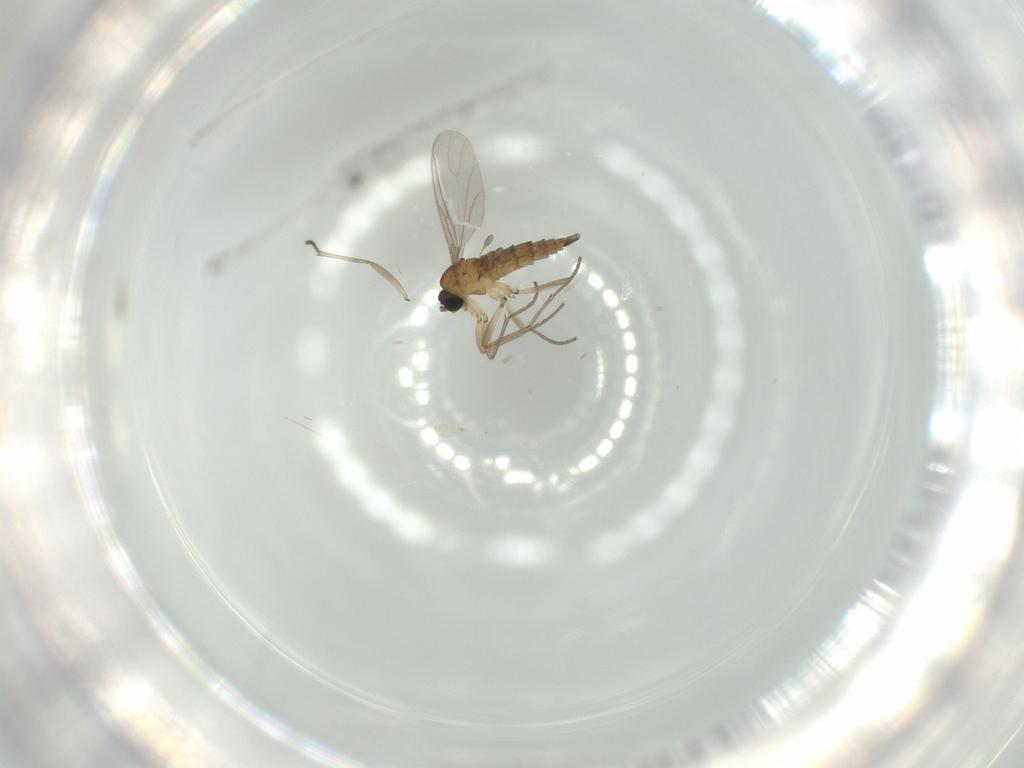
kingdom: Animalia
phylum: Arthropoda
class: Insecta
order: Diptera
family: Sciaridae
